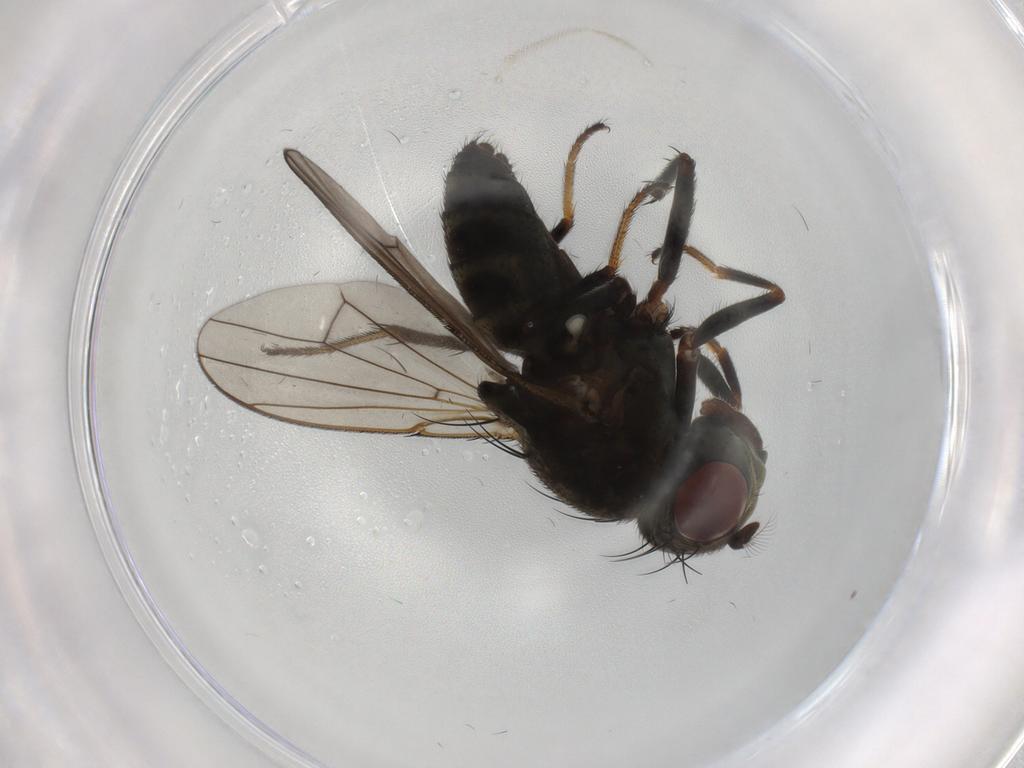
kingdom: Animalia
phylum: Arthropoda
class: Insecta
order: Diptera
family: Ephydridae
